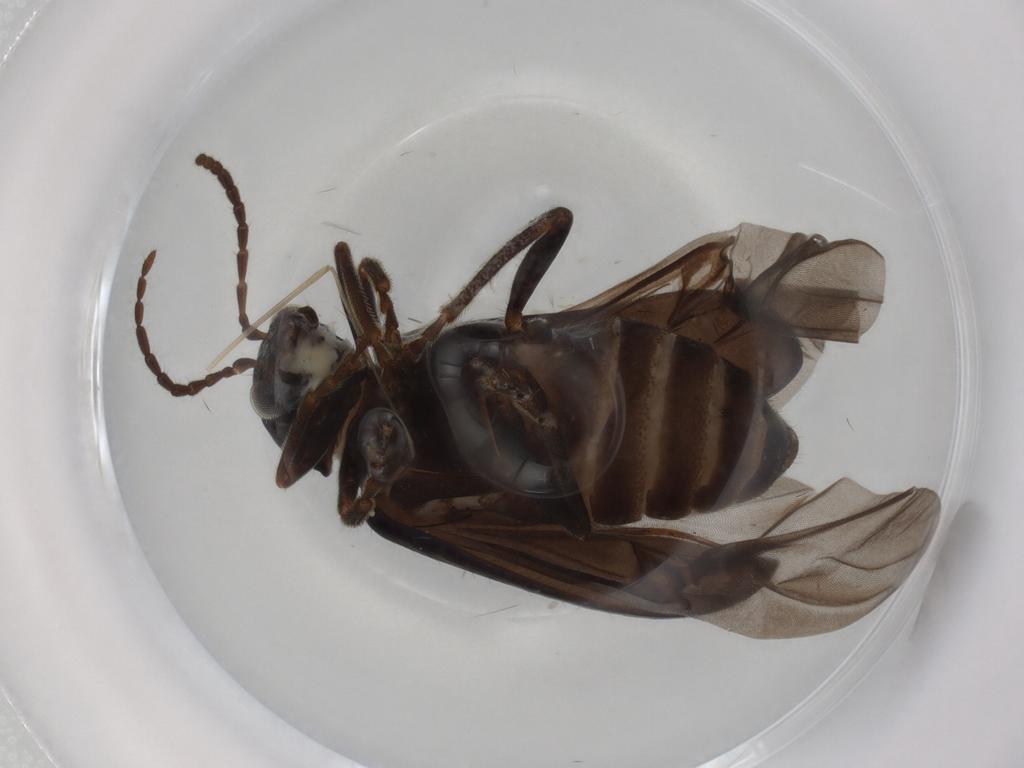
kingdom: Animalia
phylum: Arthropoda
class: Insecta
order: Coleoptera
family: Chrysomelidae
